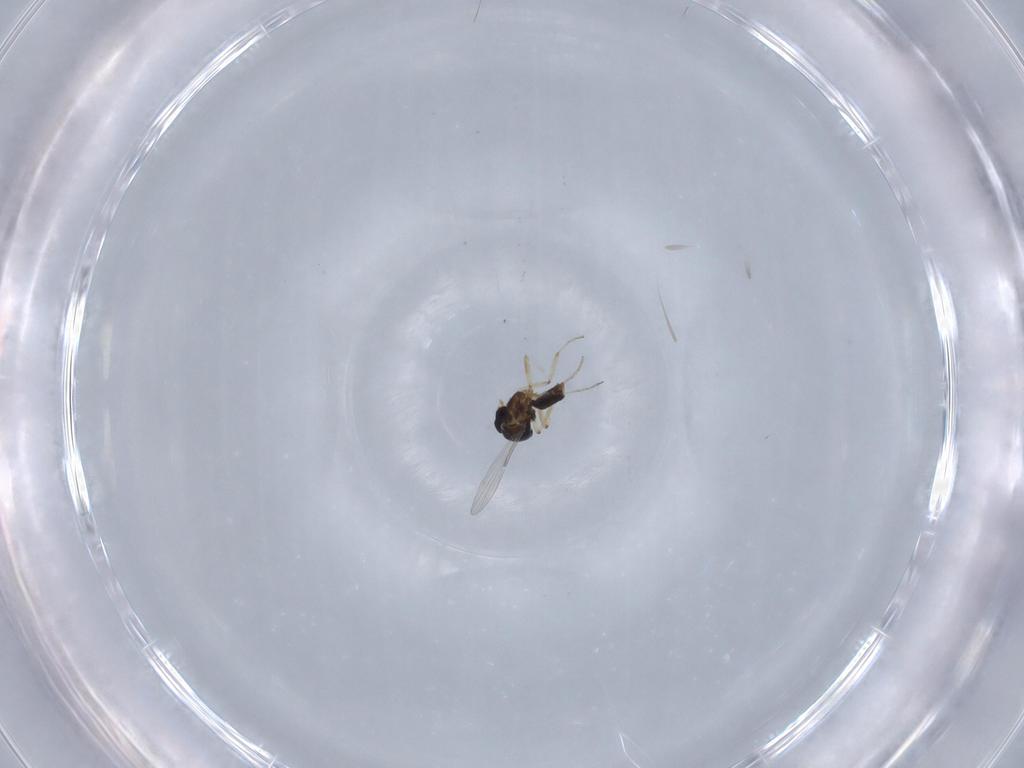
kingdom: Animalia
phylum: Arthropoda
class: Insecta
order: Diptera
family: Ceratopogonidae
